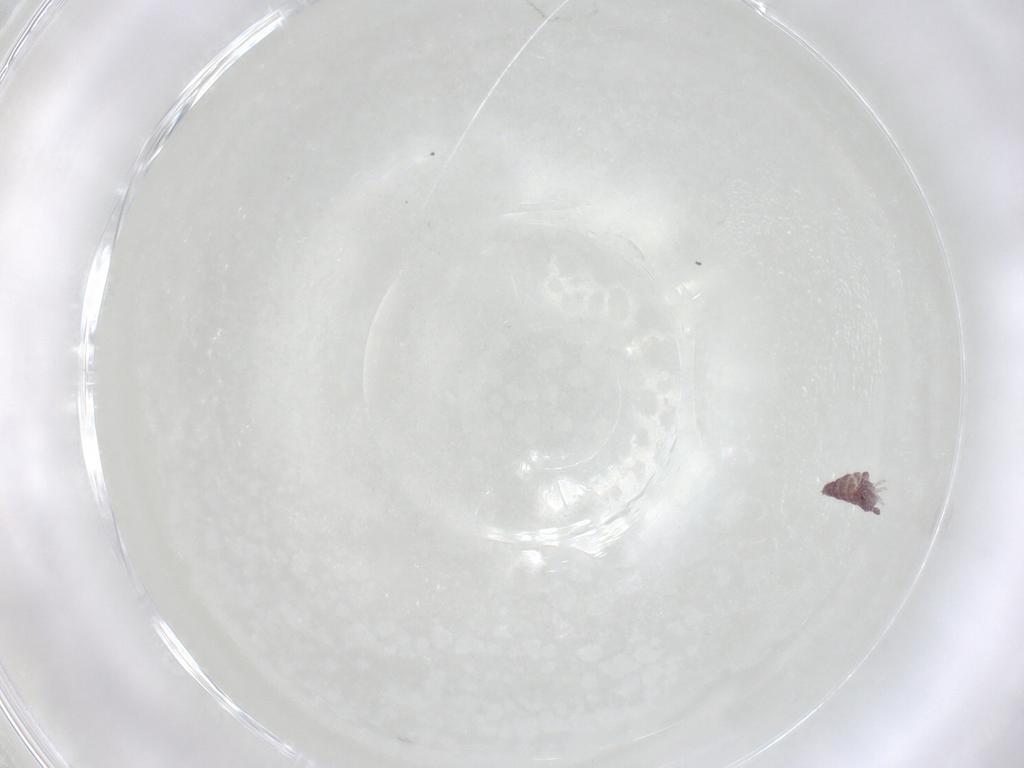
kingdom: Animalia
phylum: Arthropoda
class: Collembola
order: Poduromorpha
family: Hypogastruridae
